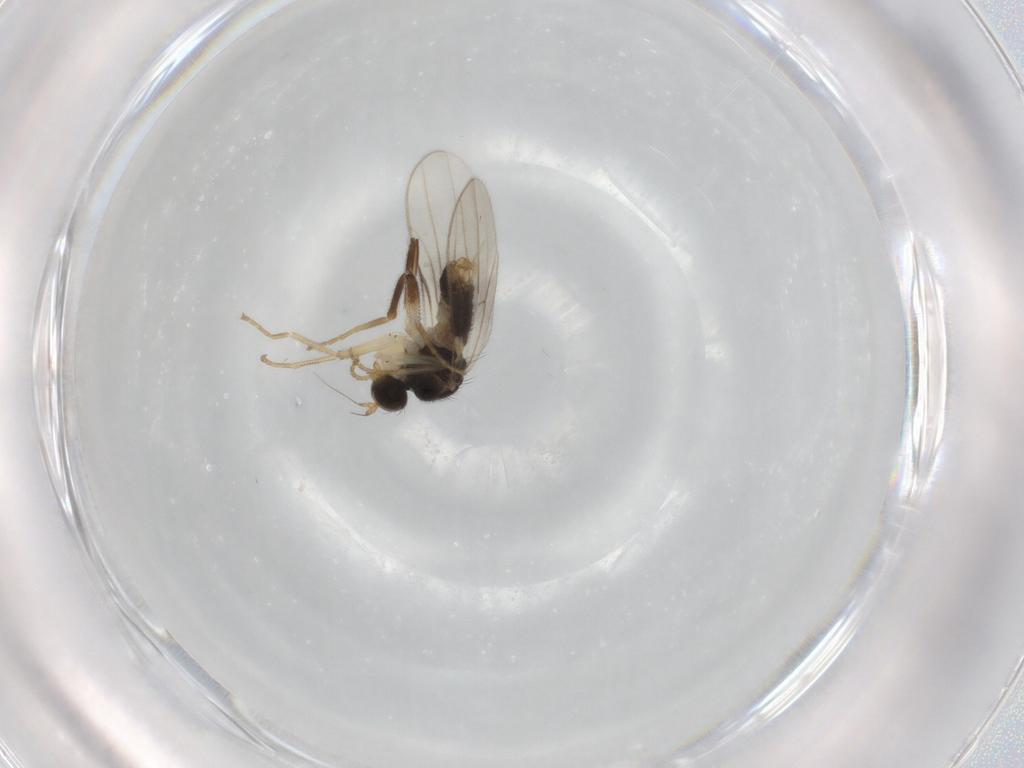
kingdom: Animalia
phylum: Arthropoda
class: Insecta
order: Diptera
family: Hybotidae
